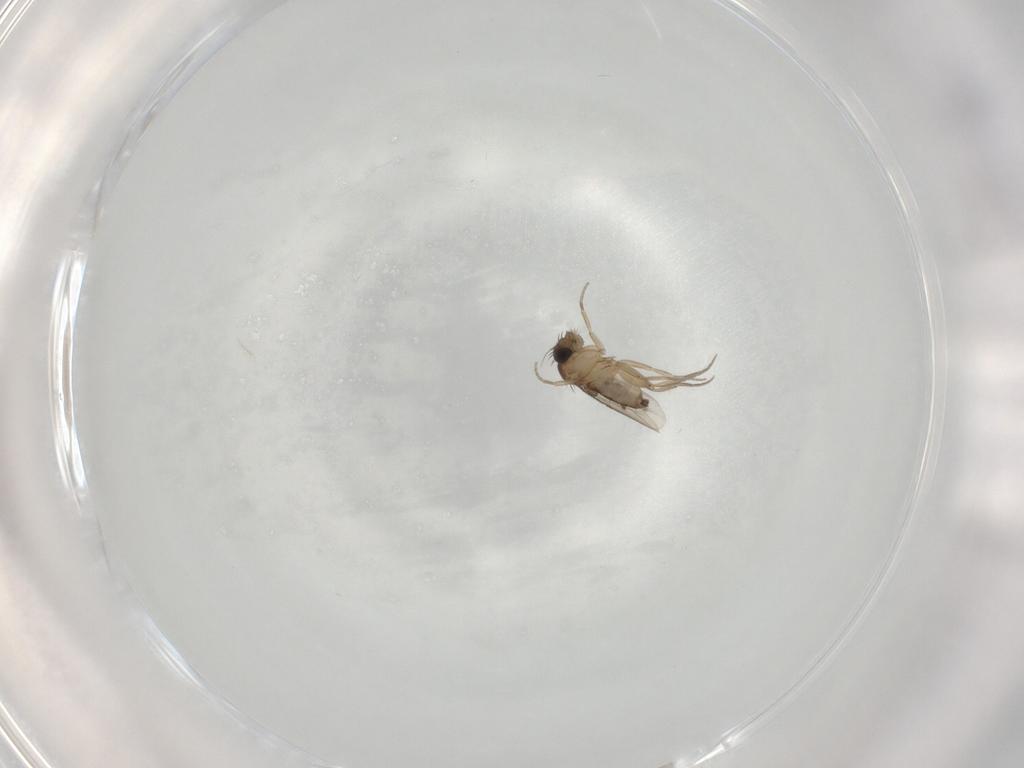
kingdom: Animalia
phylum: Arthropoda
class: Insecta
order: Diptera
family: Phoridae
